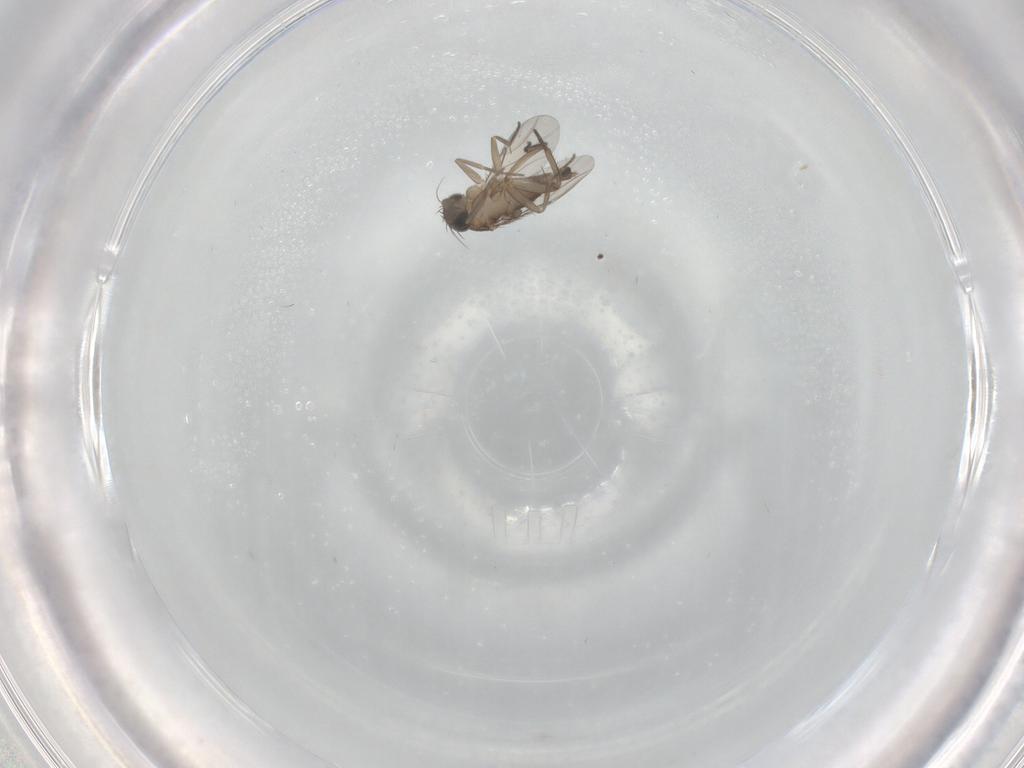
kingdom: Animalia
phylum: Arthropoda
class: Insecta
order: Diptera
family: Phoridae
